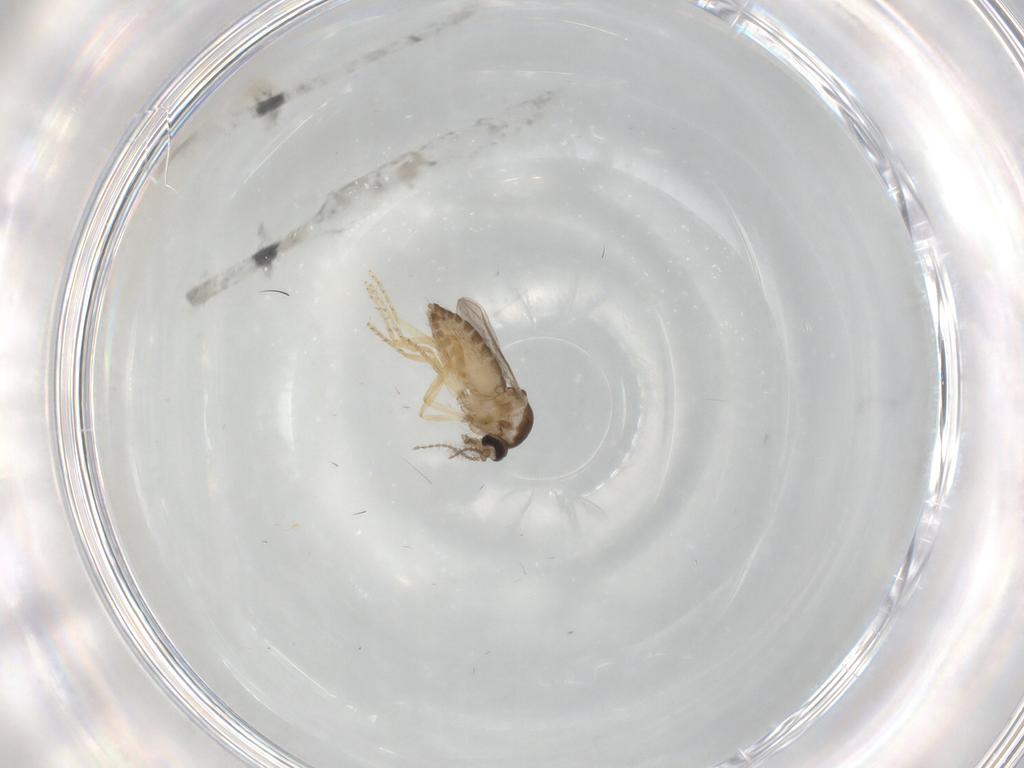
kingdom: Animalia
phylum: Arthropoda
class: Insecta
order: Diptera
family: Ceratopogonidae
